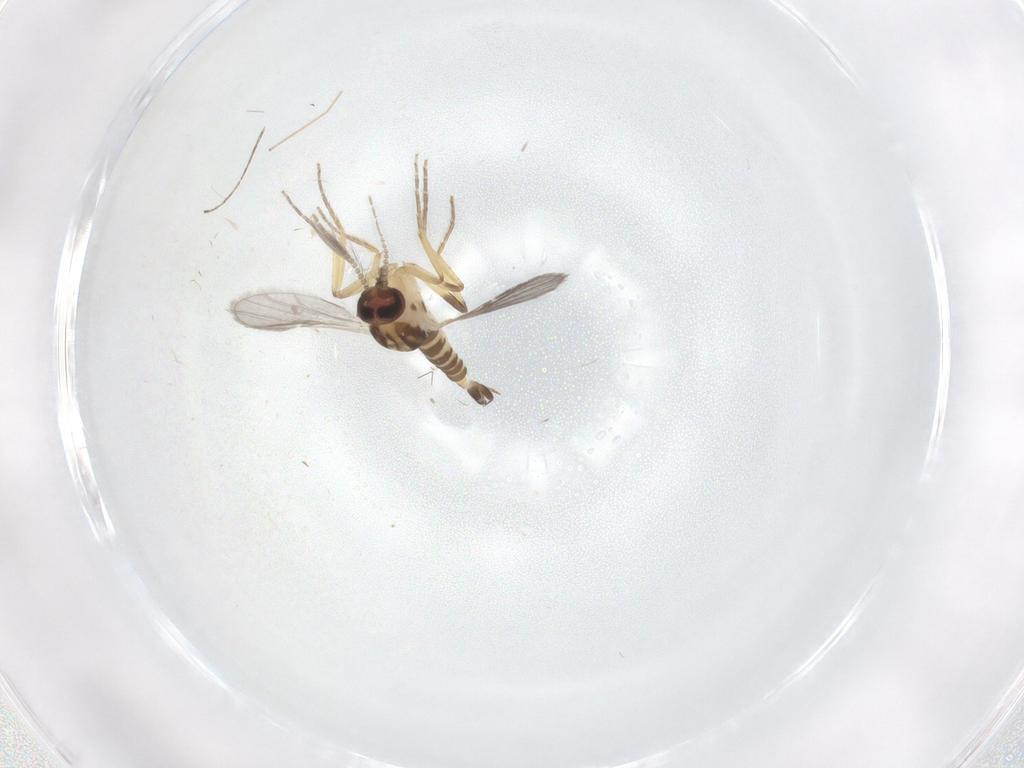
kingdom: Animalia
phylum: Arthropoda
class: Insecta
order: Diptera
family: Ceratopogonidae
